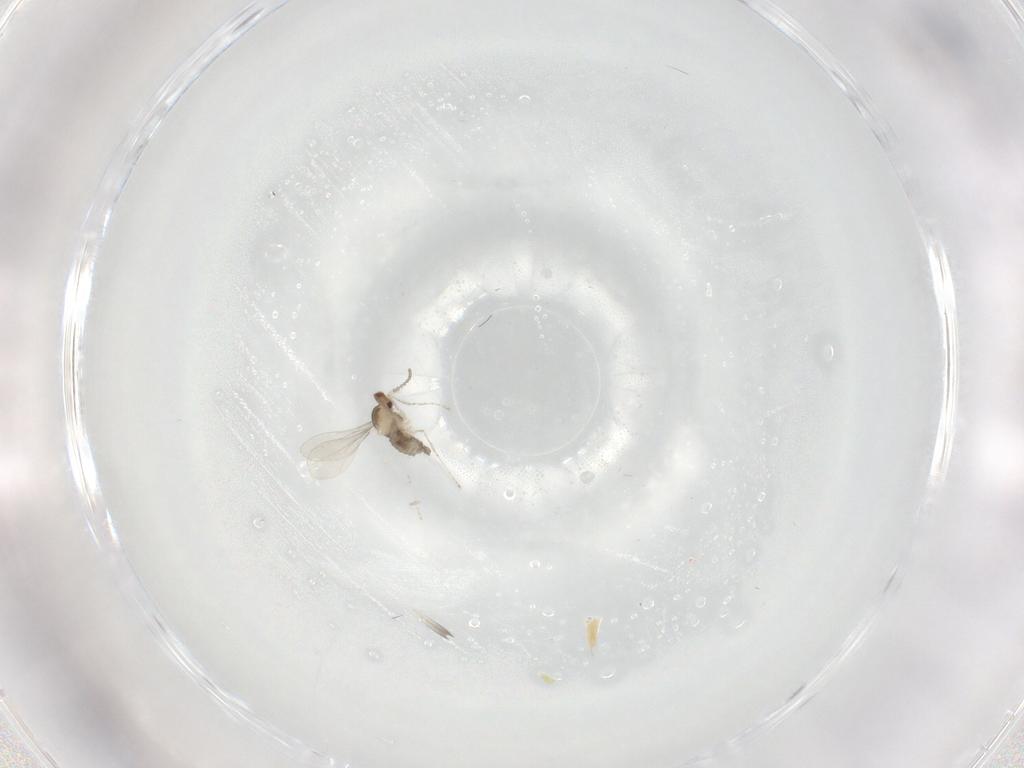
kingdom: Animalia
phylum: Arthropoda
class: Insecta
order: Diptera
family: Cecidomyiidae
